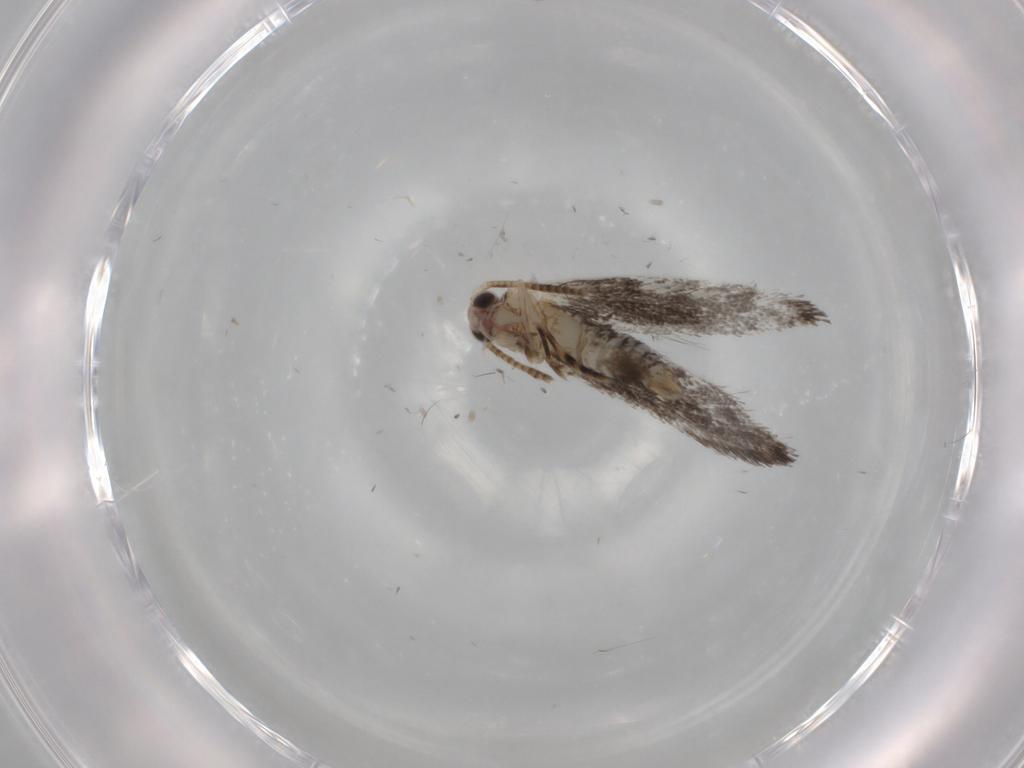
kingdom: Animalia
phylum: Arthropoda
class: Insecta
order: Lepidoptera
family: Tineidae
